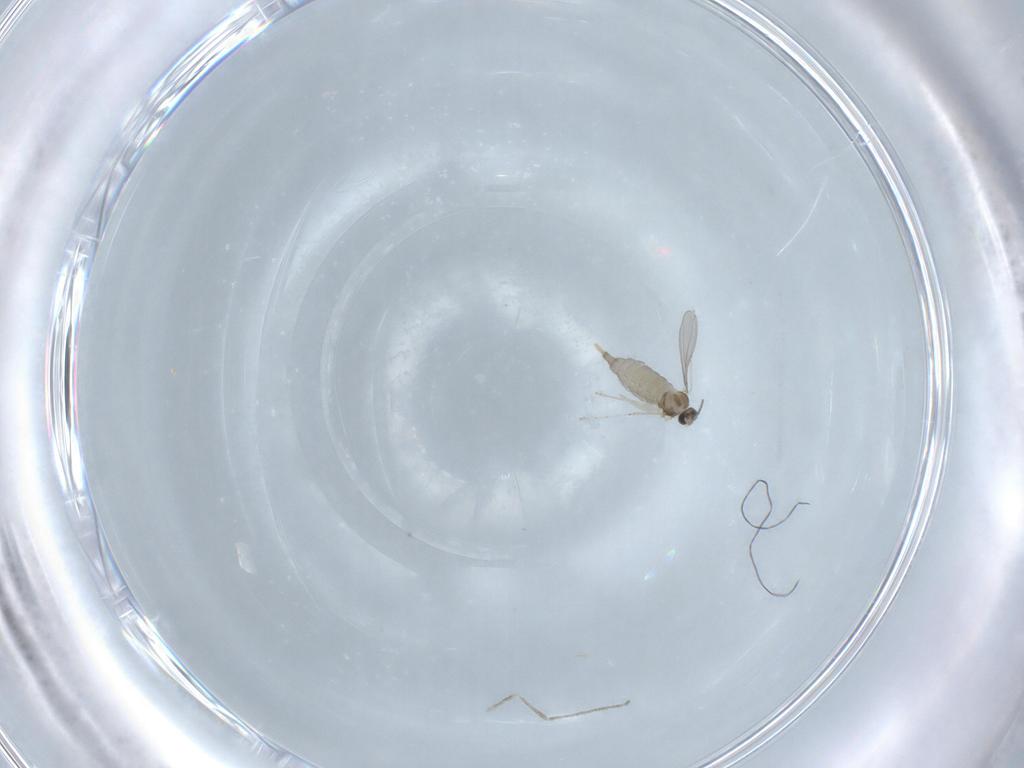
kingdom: Animalia
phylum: Arthropoda
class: Insecta
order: Diptera
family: Cecidomyiidae
